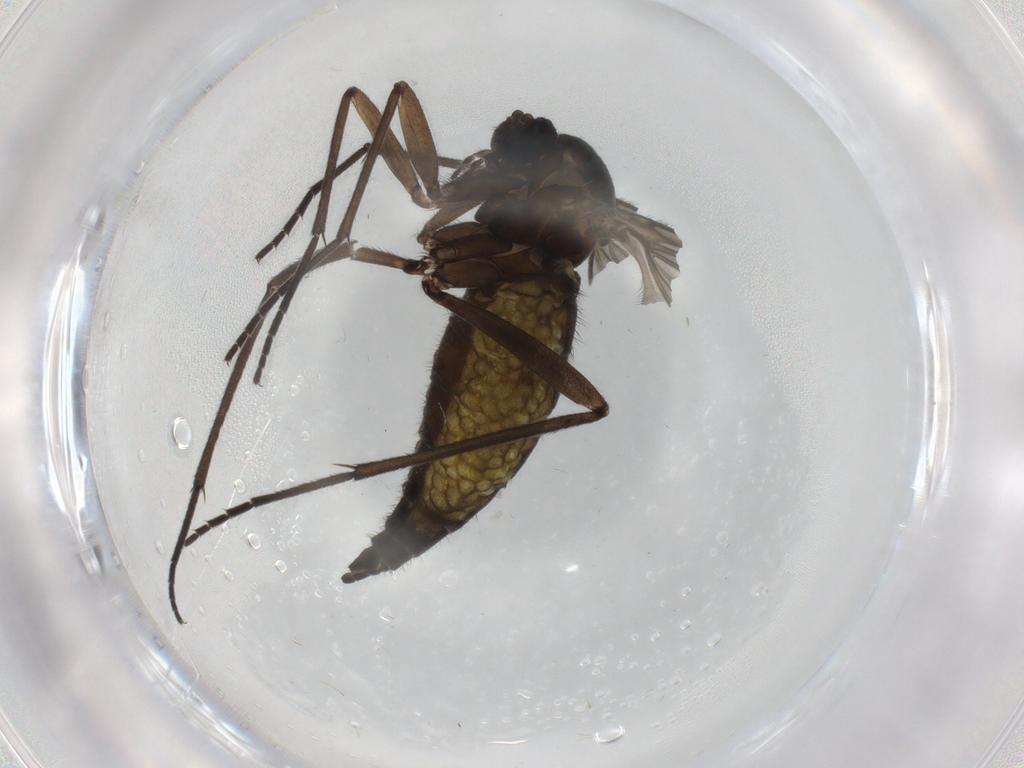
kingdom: Animalia
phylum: Arthropoda
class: Insecta
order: Diptera
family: Sciaridae
